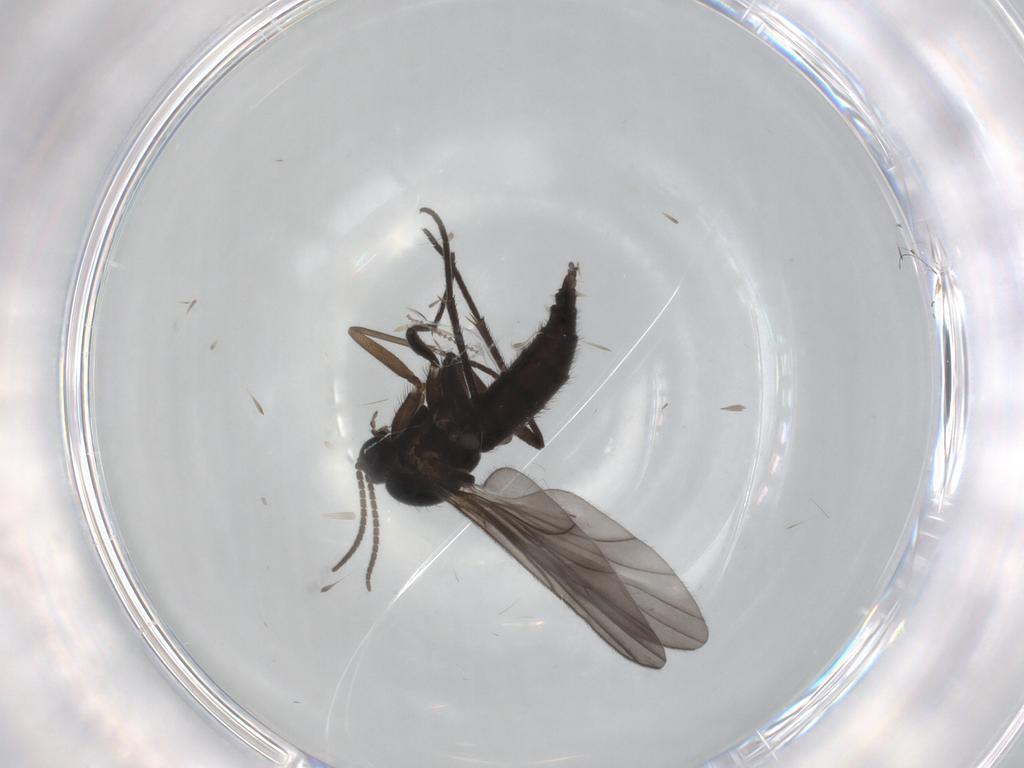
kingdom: Animalia
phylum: Arthropoda
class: Insecta
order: Diptera
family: Sciaridae
